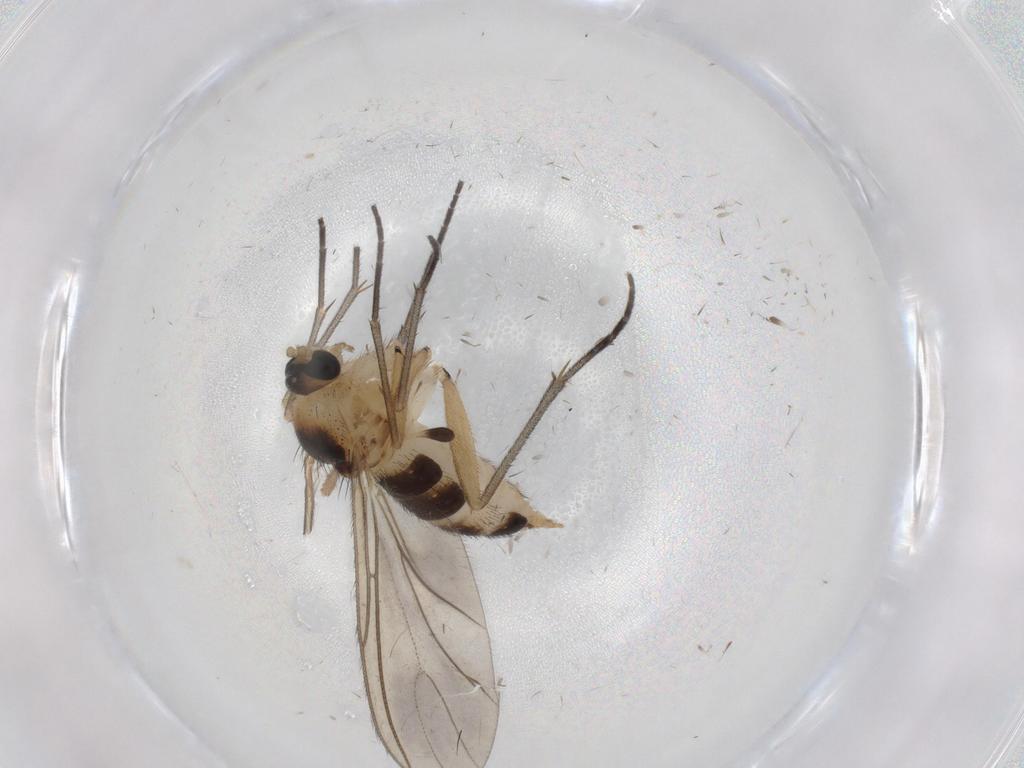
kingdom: Animalia
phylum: Arthropoda
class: Insecta
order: Diptera
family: Sciaridae
